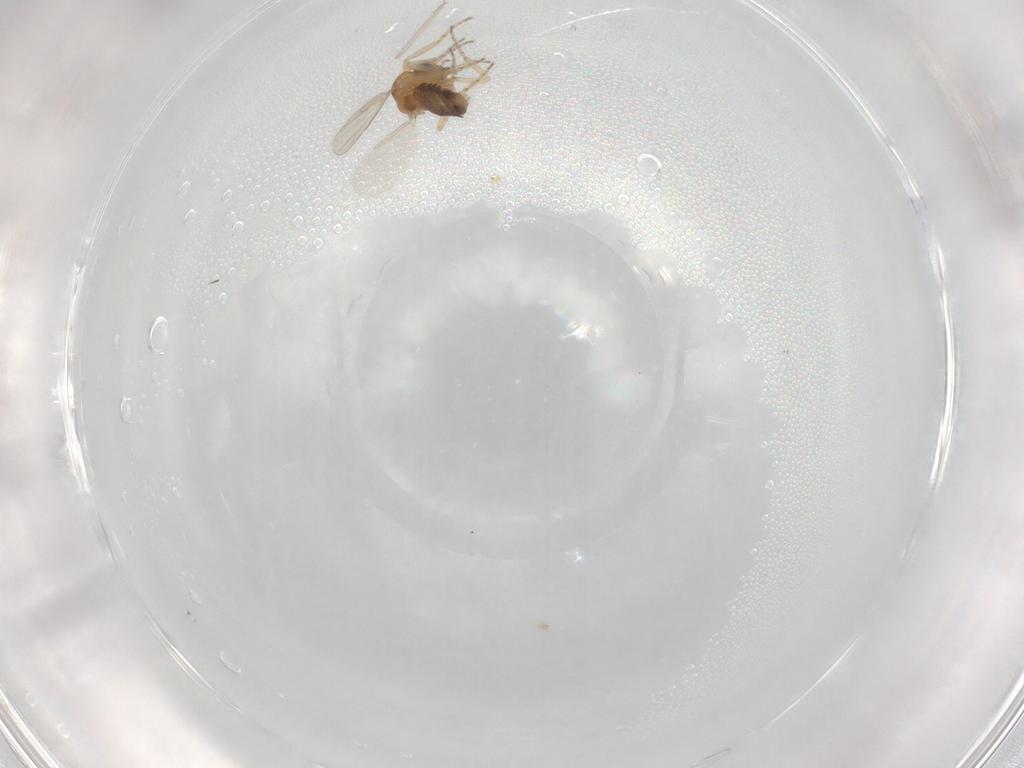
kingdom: Animalia
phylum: Arthropoda
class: Insecta
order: Diptera
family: Ceratopogonidae
